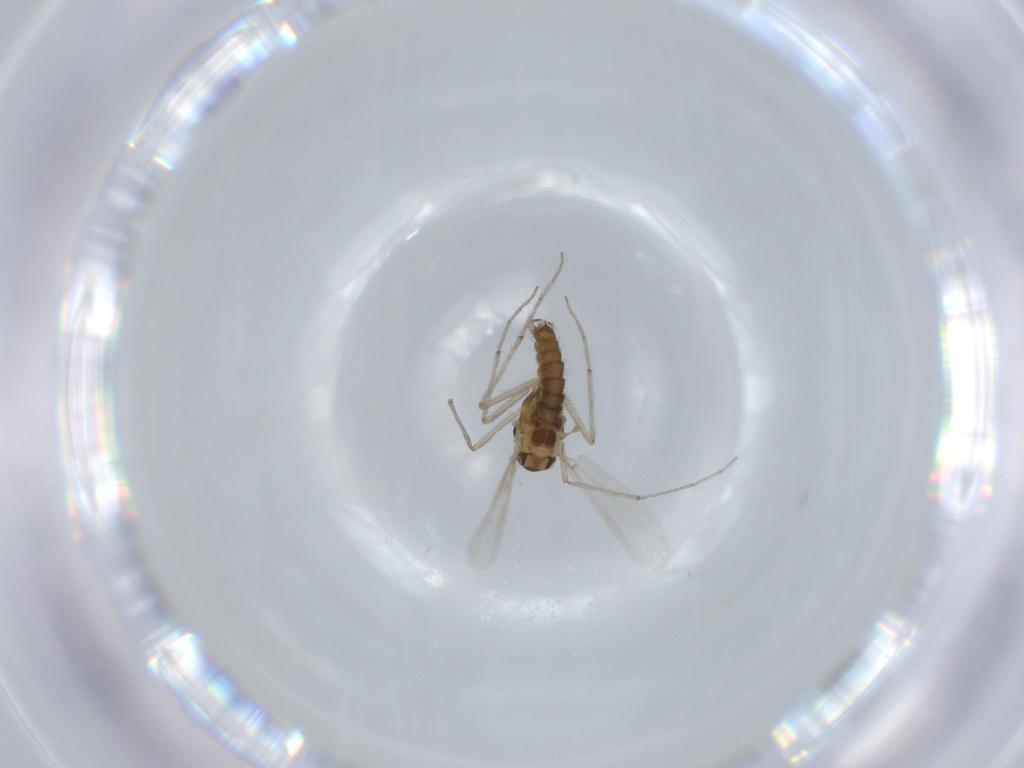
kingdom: Animalia
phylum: Arthropoda
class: Insecta
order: Diptera
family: Chironomidae
